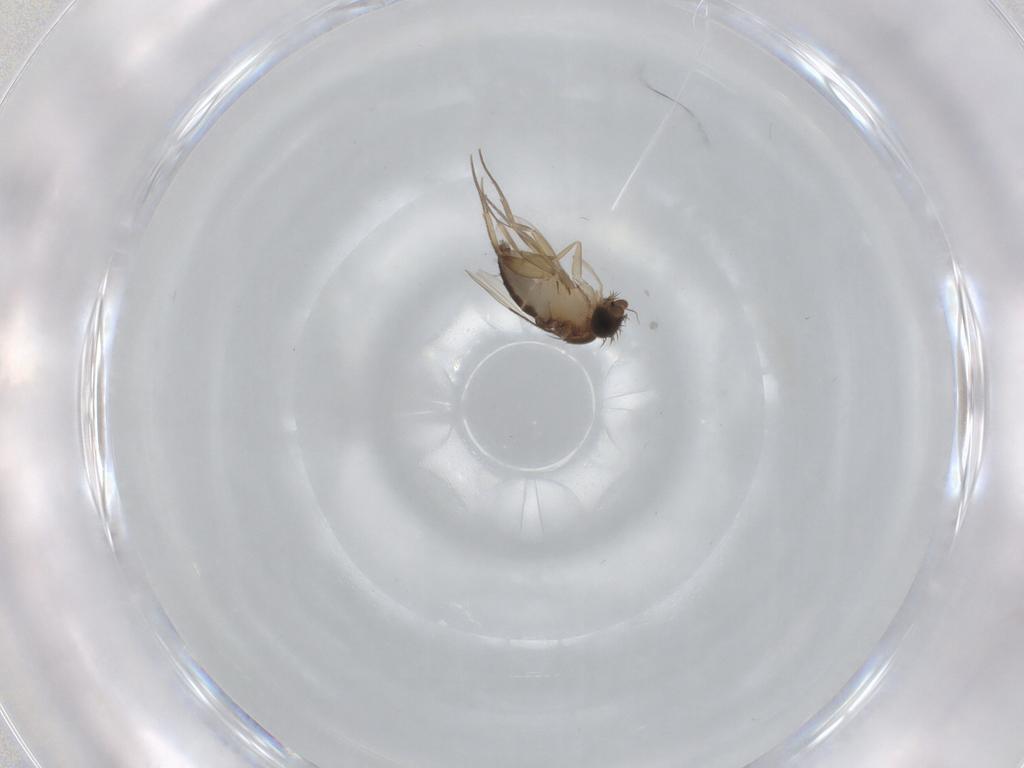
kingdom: Animalia
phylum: Arthropoda
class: Insecta
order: Diptera
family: Phoridae
